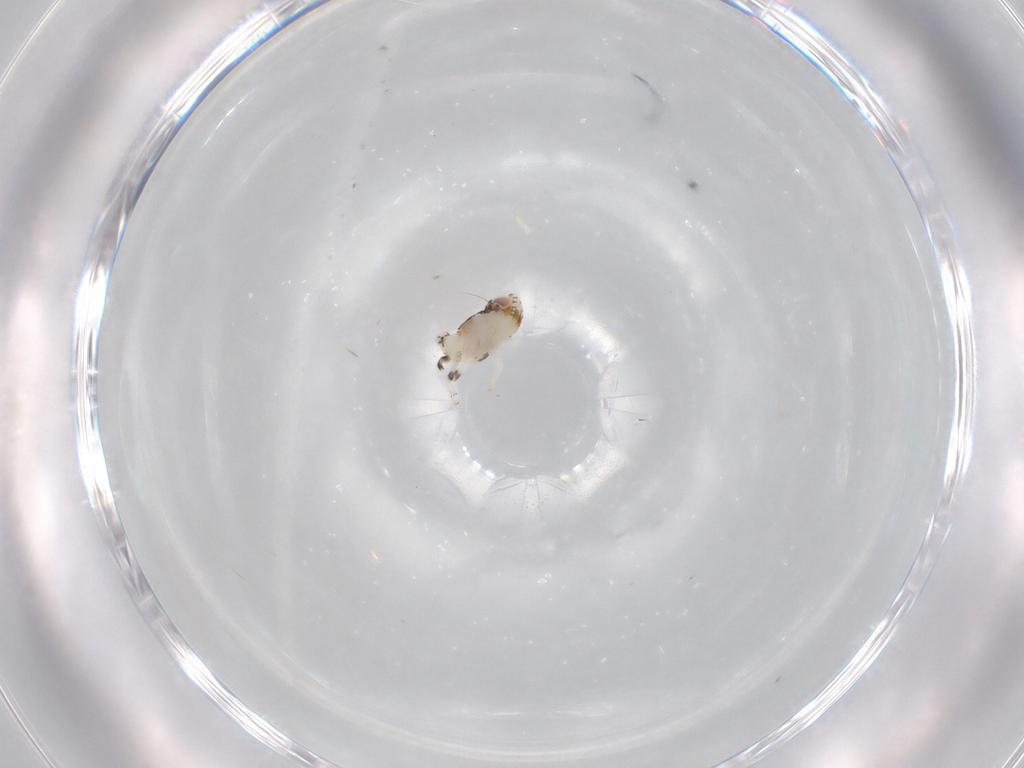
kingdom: Animalia
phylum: Arthropoda
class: Insecta
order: Hemiptera
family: Nogodinidae
